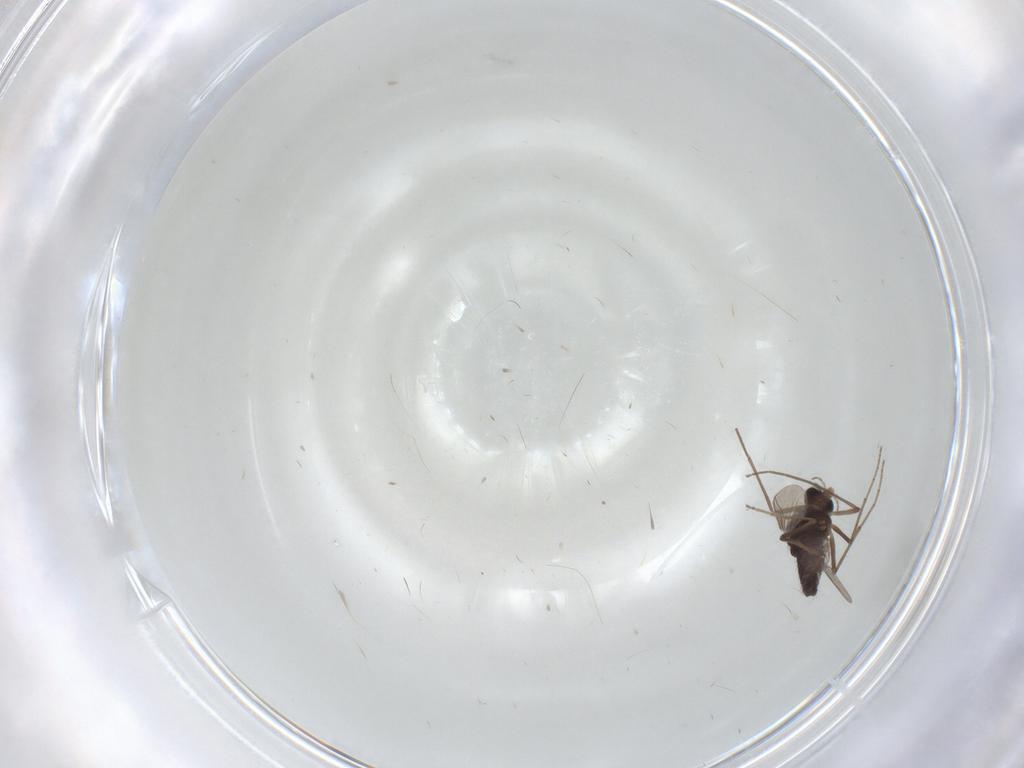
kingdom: Animalia
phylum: Arthropoda
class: Insecta
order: Diptera
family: Chironomidae
